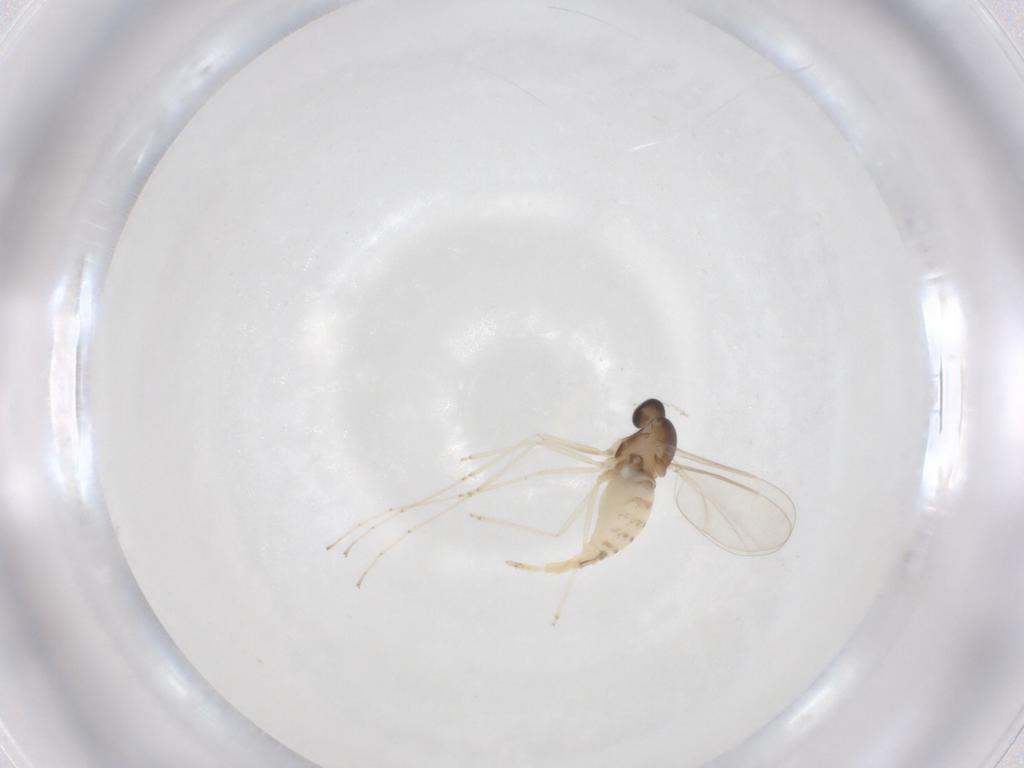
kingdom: Animalia
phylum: Arthropoda
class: Insecta
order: Diptera
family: Cecidomyiidae
